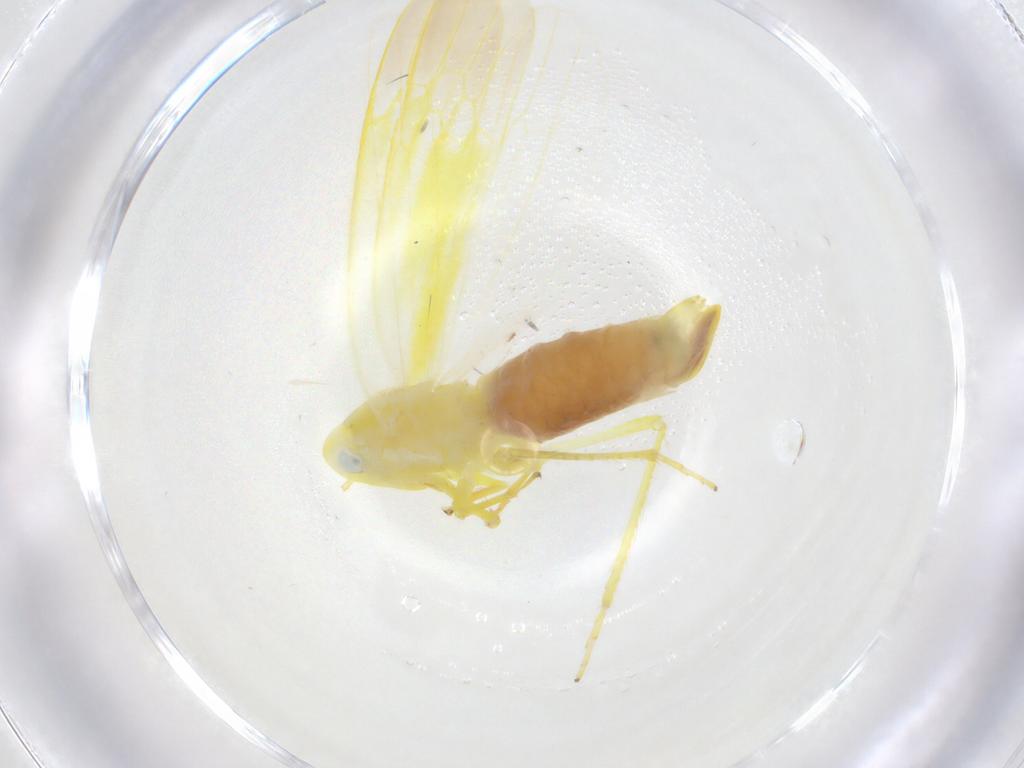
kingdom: Animalia
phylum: Arthropoda
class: Insecta
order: Hemiptera
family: Cicadellidae
